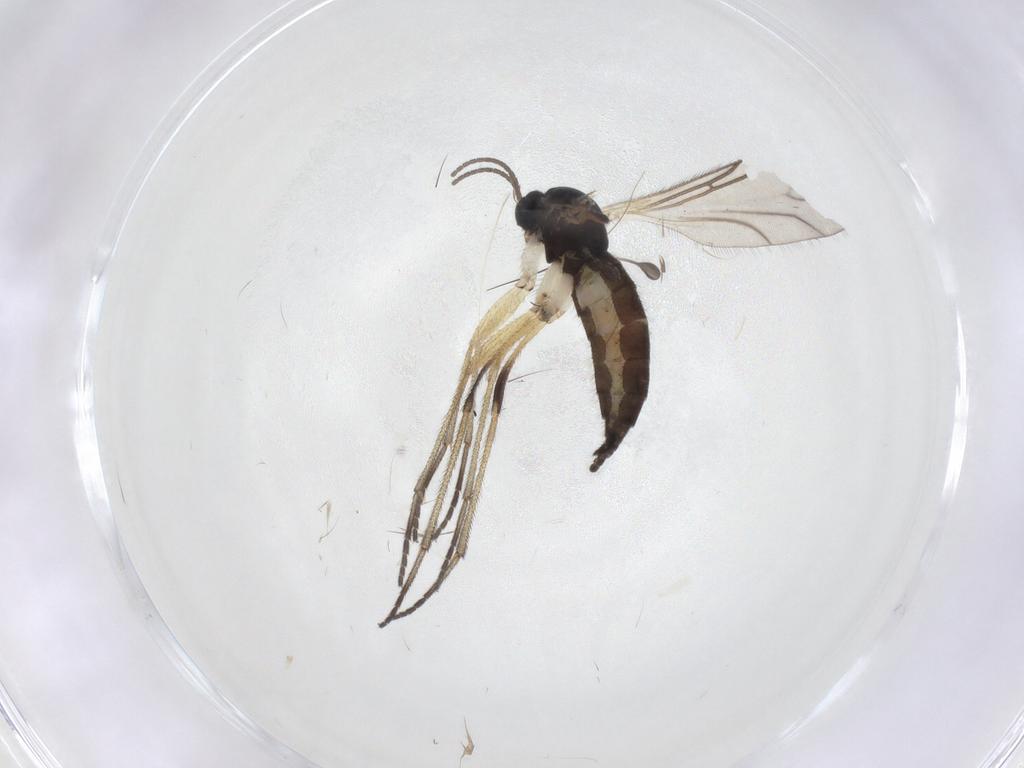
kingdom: Animalia
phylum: Arthropoda
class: Insecta
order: Diptera
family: Sciaridae
